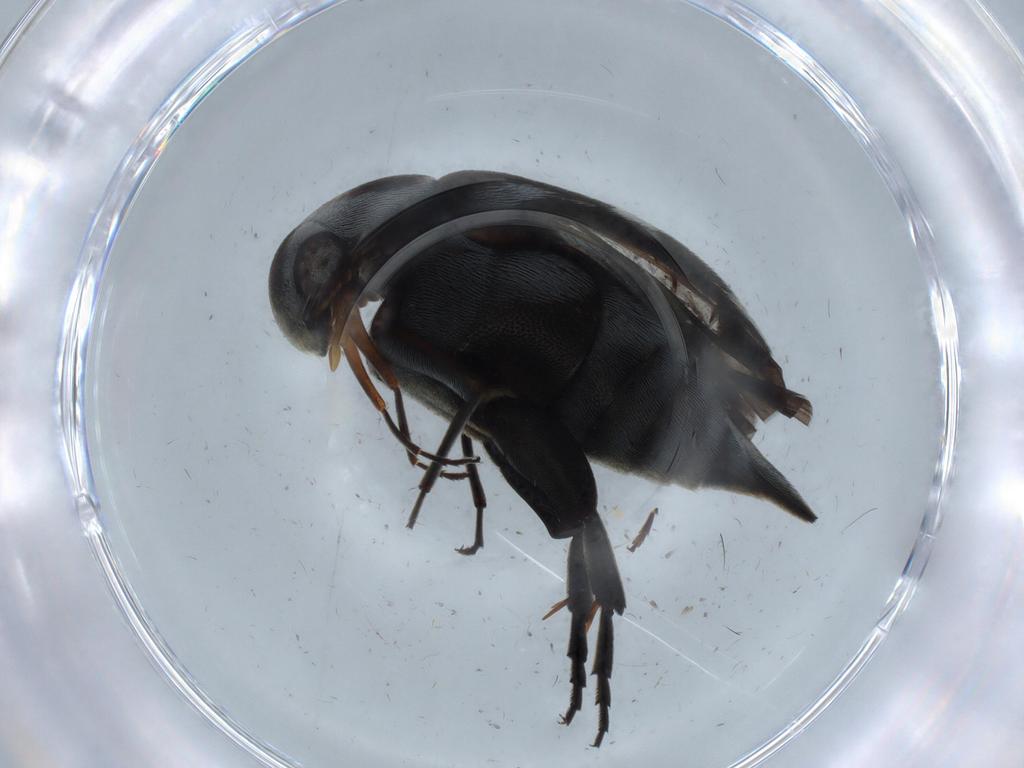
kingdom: Animalia
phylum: Arthropoda
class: Insecta
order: Coleoptera
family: Mordellidae
